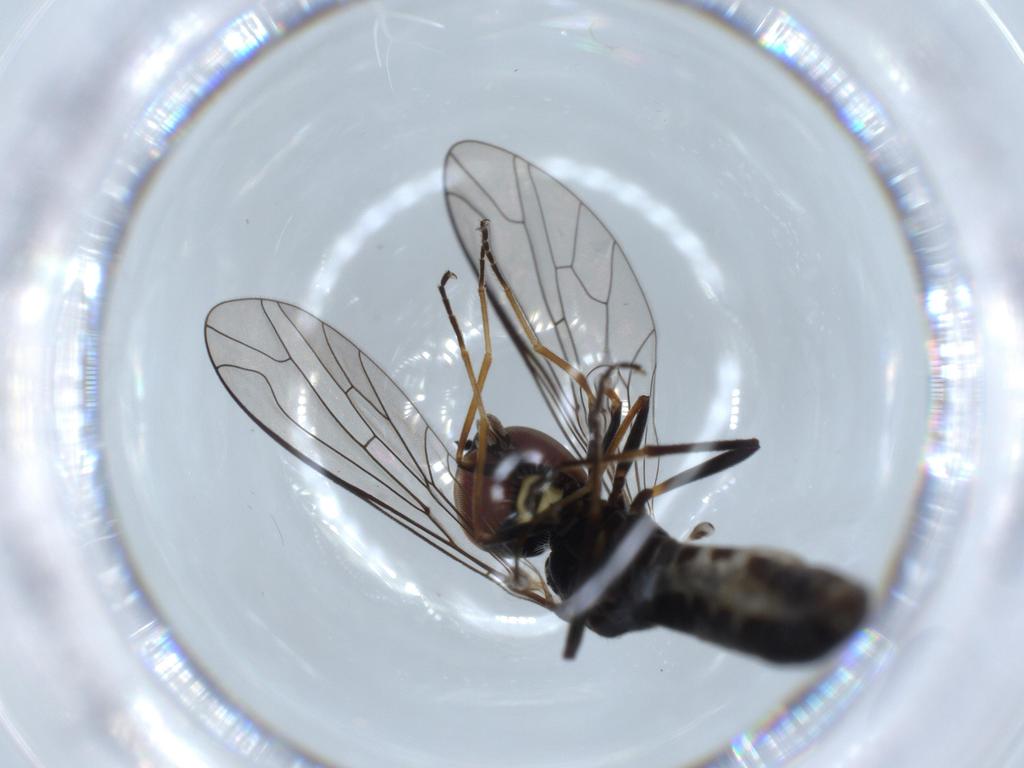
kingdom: Animalia
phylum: Arthropoda
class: Insecta
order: Diptera
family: Bombyliidae
